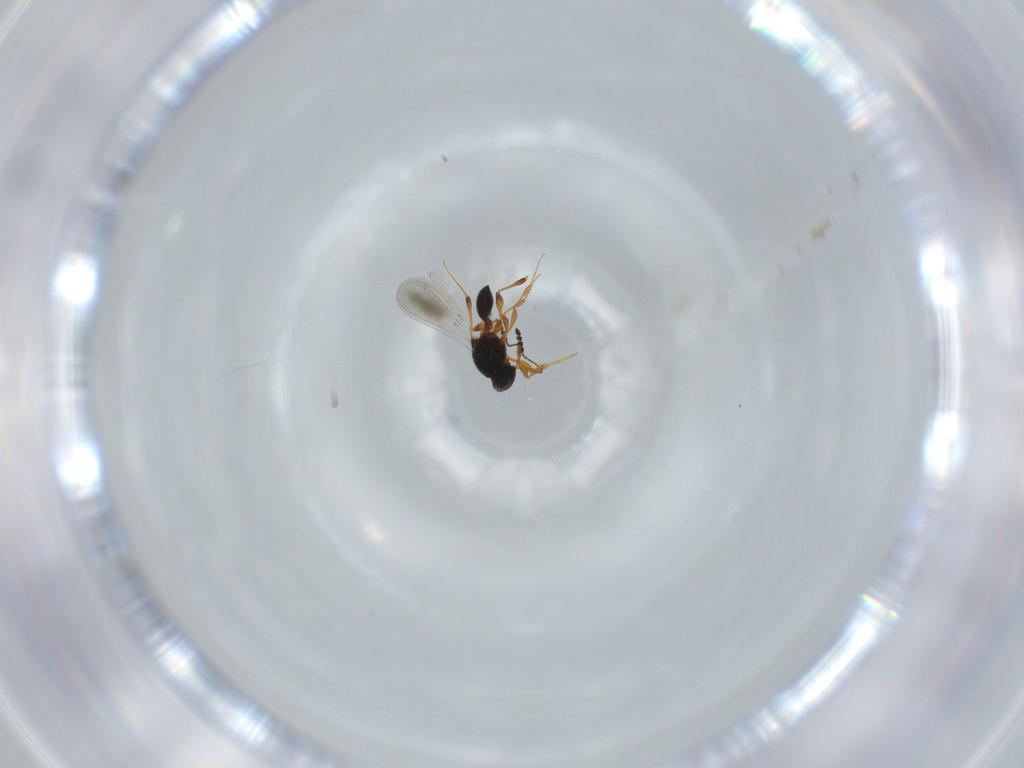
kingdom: Animalia
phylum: Arthropoda
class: Insecta
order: Hymenoptera
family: Platygastridae
